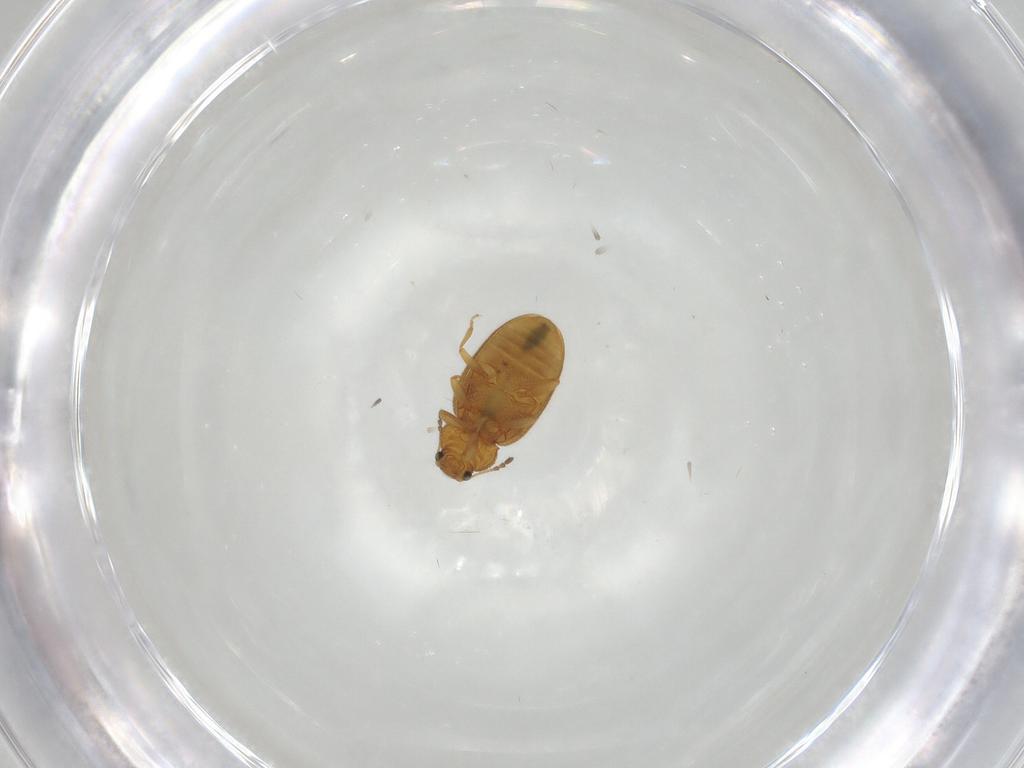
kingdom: Animalia
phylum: Arthropoda
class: Insecta
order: Coleoptera
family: Latridiidae
